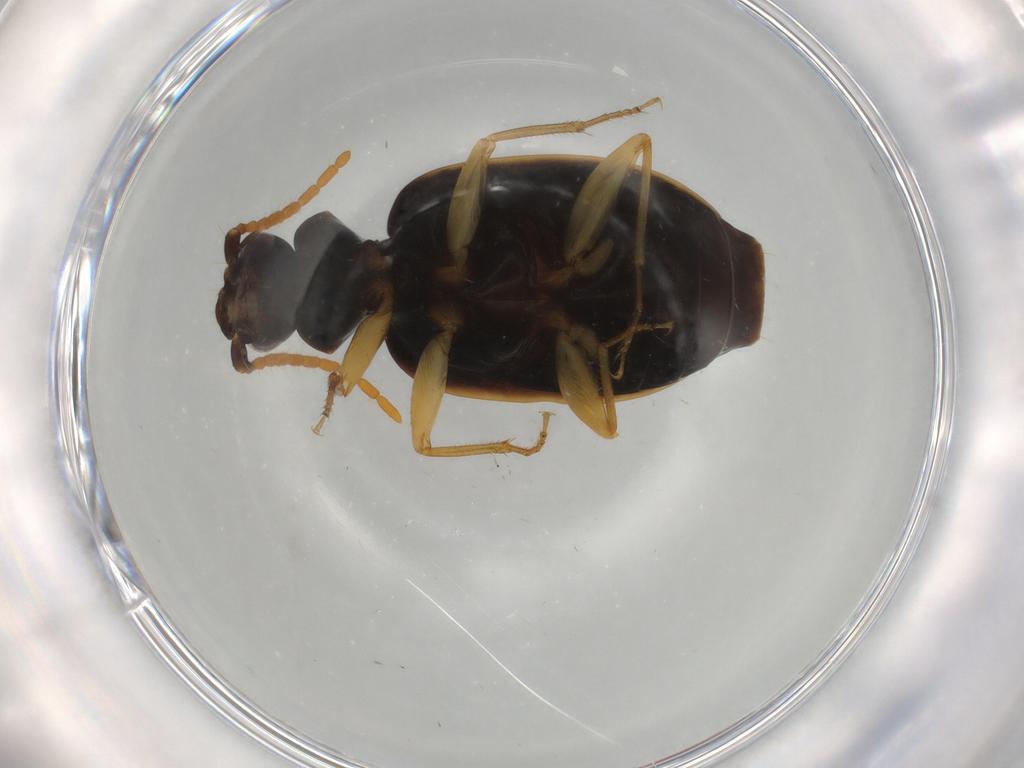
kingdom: Animalia
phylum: Arthropoda
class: Insecta
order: Coleoptera
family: Carabidae
